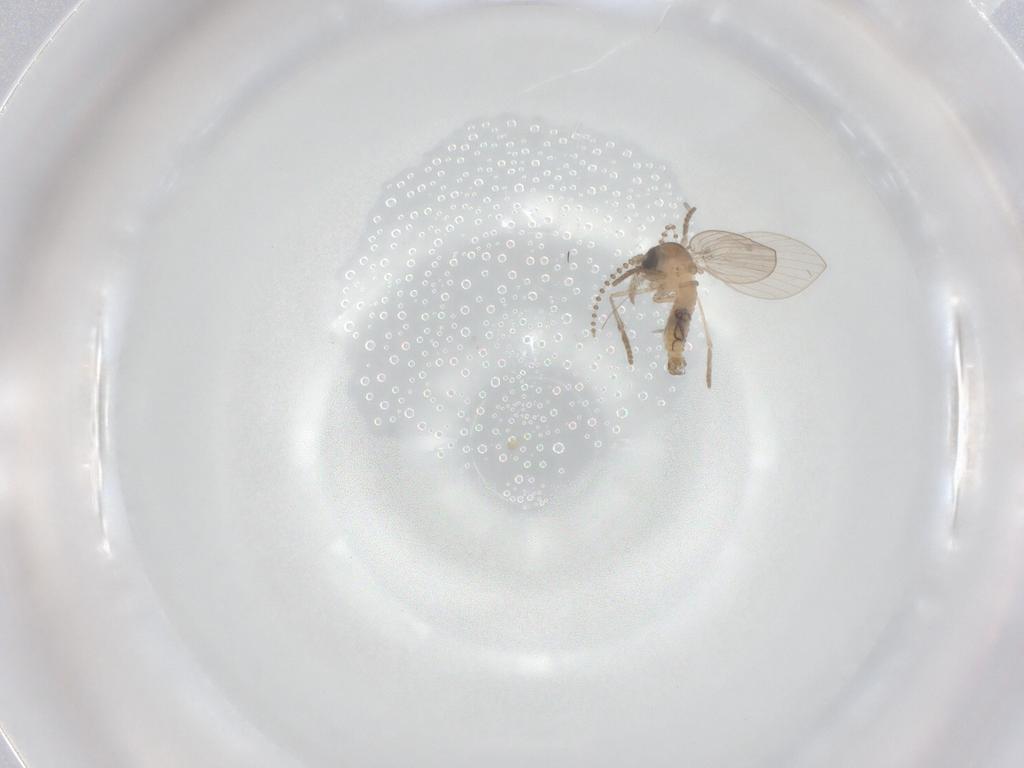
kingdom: Animalia
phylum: Arthropoda
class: Insecta
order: Diptera
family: Psychodidae
